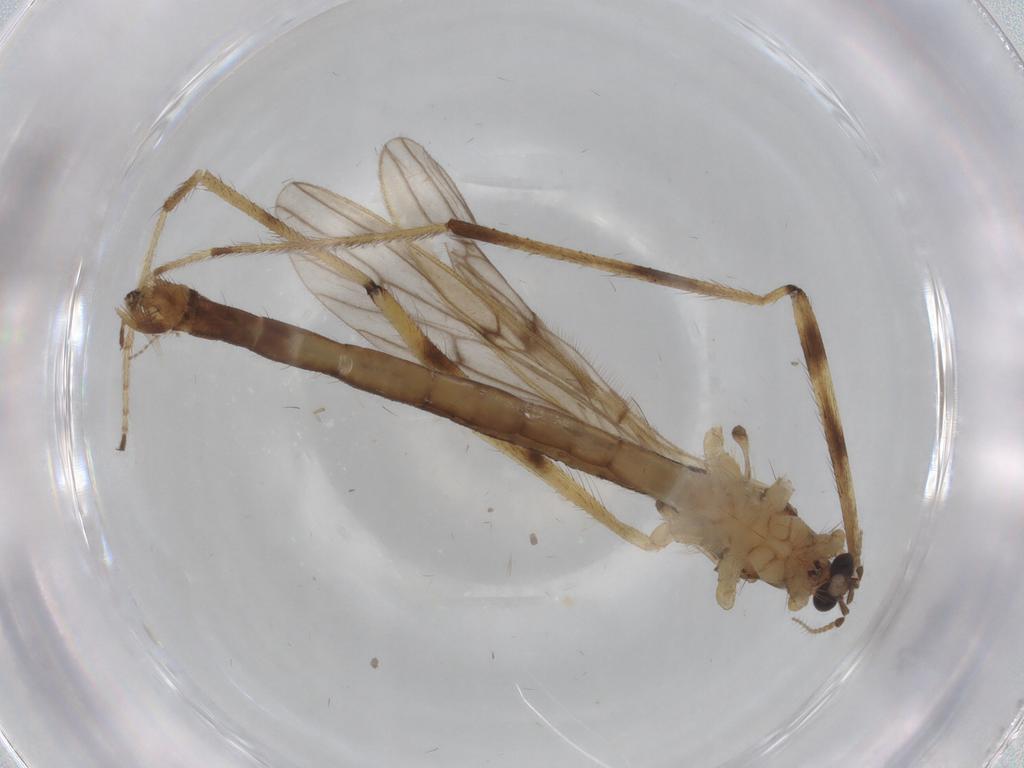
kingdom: Animalia
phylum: Arthropoda
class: Insecta
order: Diptera
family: Limoniidae
